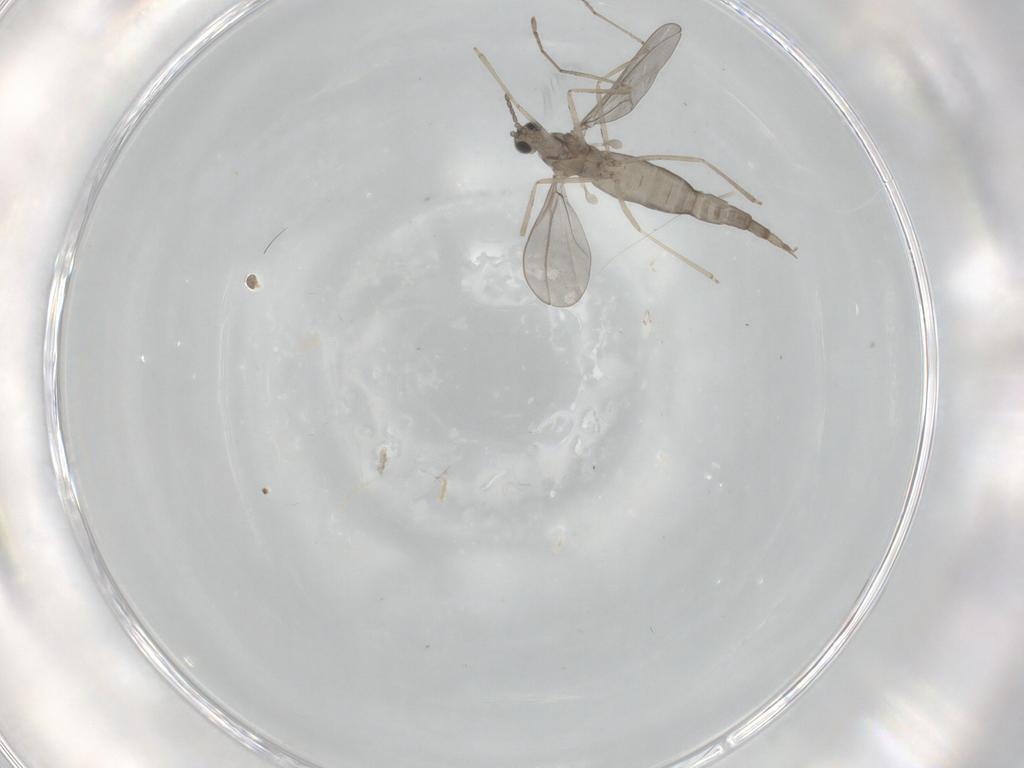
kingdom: Animalia
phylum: Arthropoda
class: Insecta
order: Diptera
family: Cecidomyiidae
